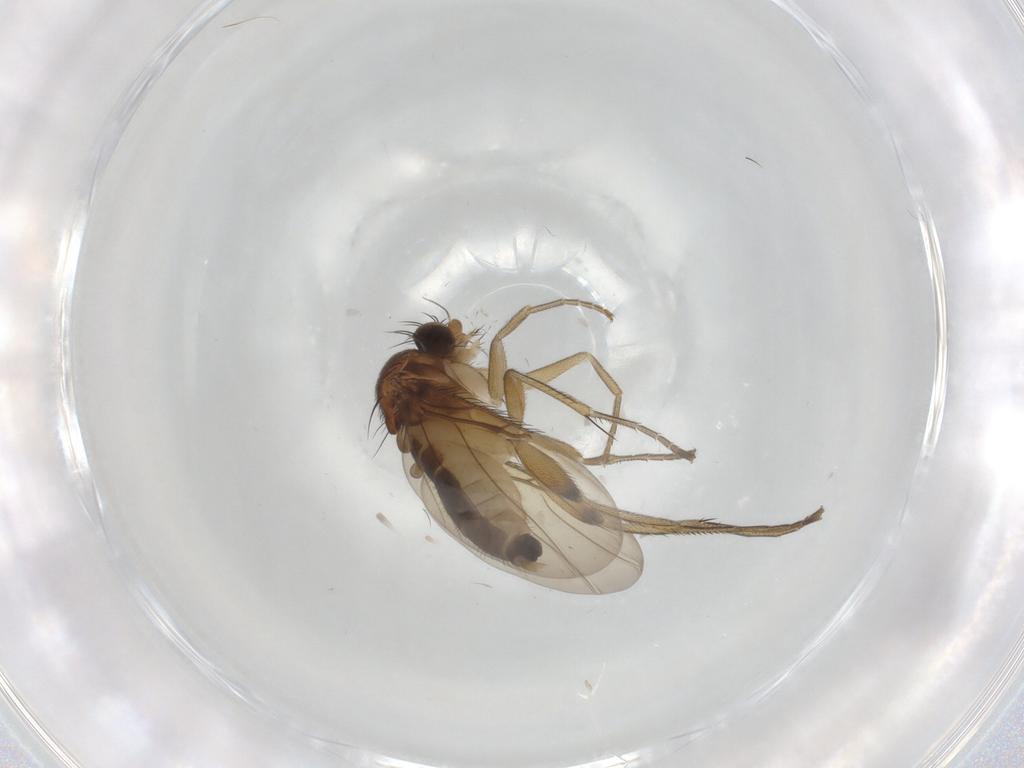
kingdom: Animalia
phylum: Arthropoda
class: Insecta
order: Diptera
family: Phoridae
